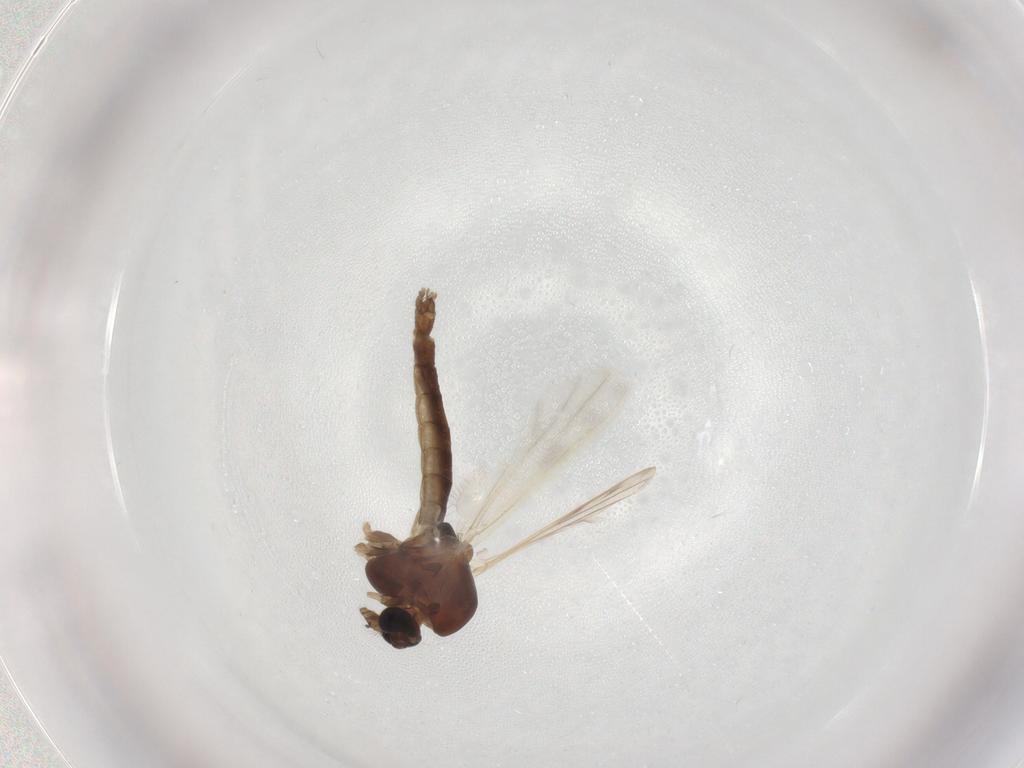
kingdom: Animalia
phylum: Arthropoda
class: Insecta
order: Diptera
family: Chironomidae
